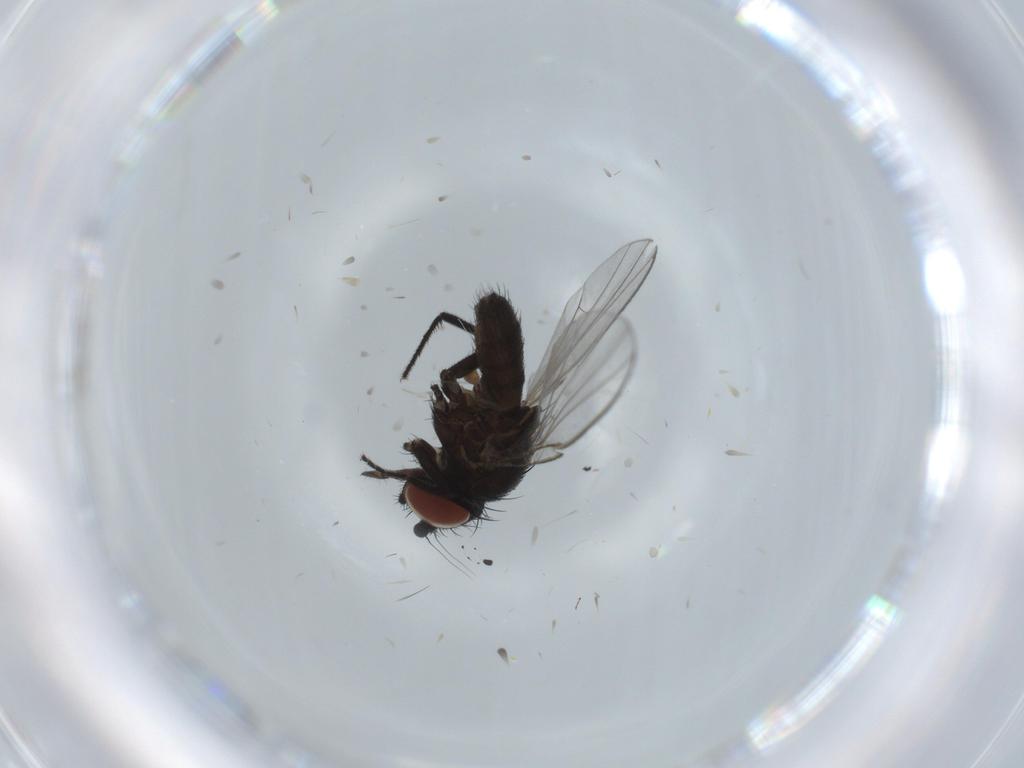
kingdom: Animalia
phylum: Arthropoda
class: Insecta
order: Diptera
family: Milichiidae
